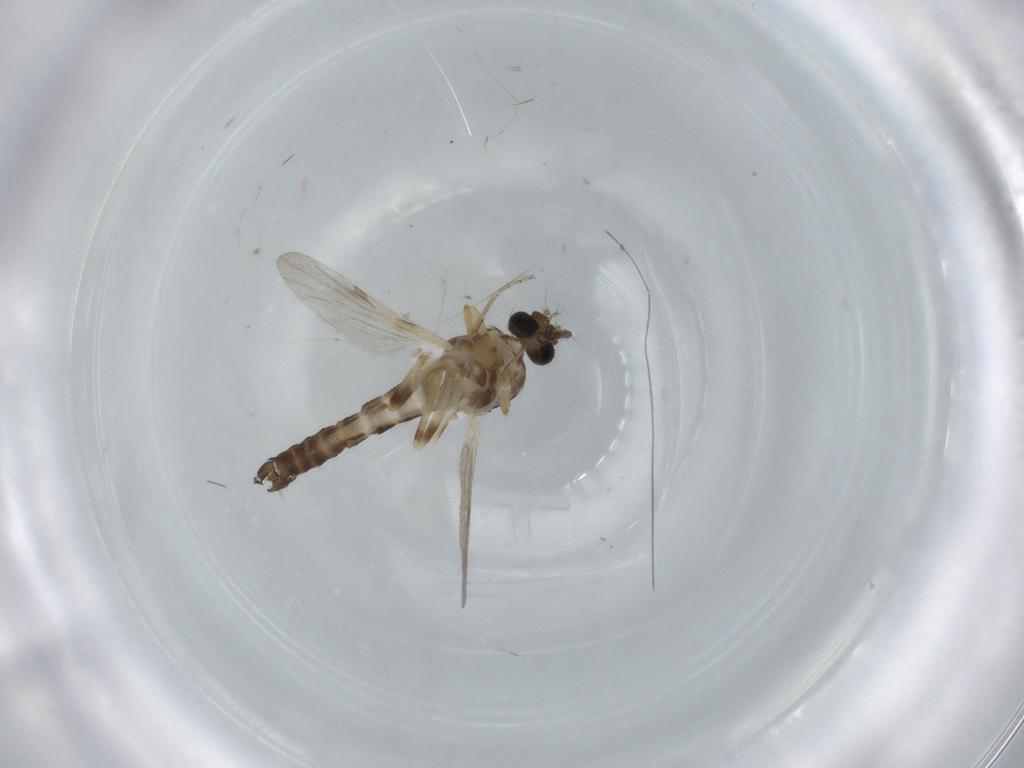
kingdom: Animalia
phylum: Arthropoda
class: Insecta
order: Diptera
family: Ceratopogonidae
